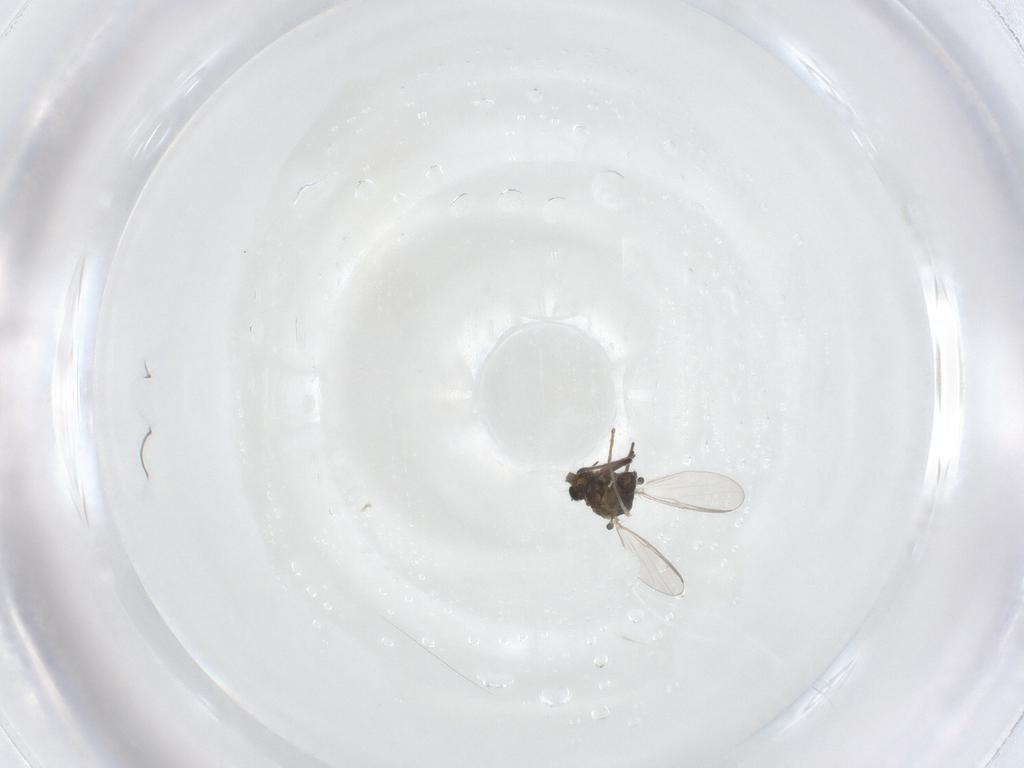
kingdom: Animalia
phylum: Arthropoda
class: Insecta
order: Diptera
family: Chironomidae
